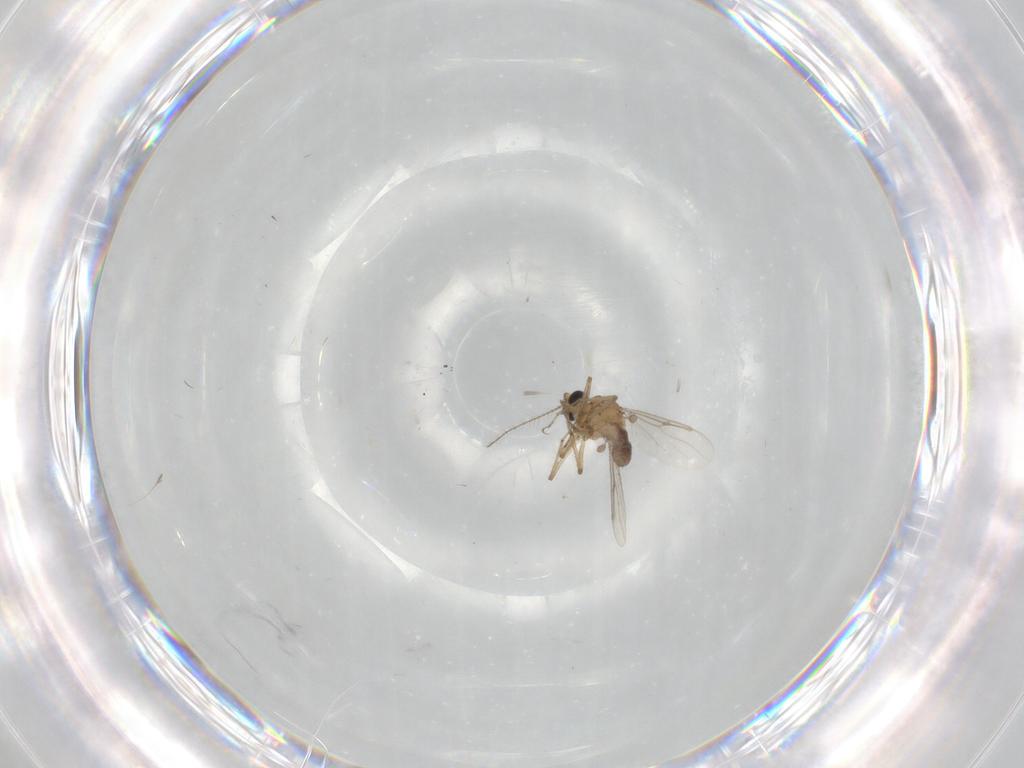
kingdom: Animalia
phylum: Arthropoda
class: Insecta
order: Diptera
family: Ceratopogonidae
